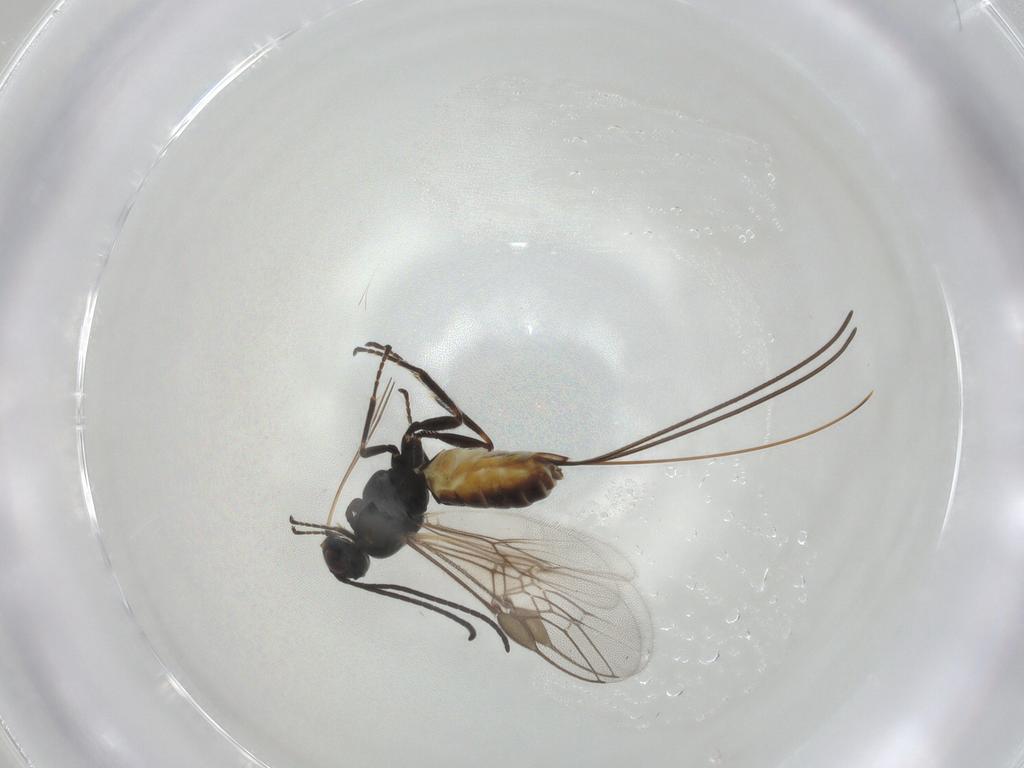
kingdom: Animalia
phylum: Arthropoda
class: Insecta
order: Hymenoptera
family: Braconidae
